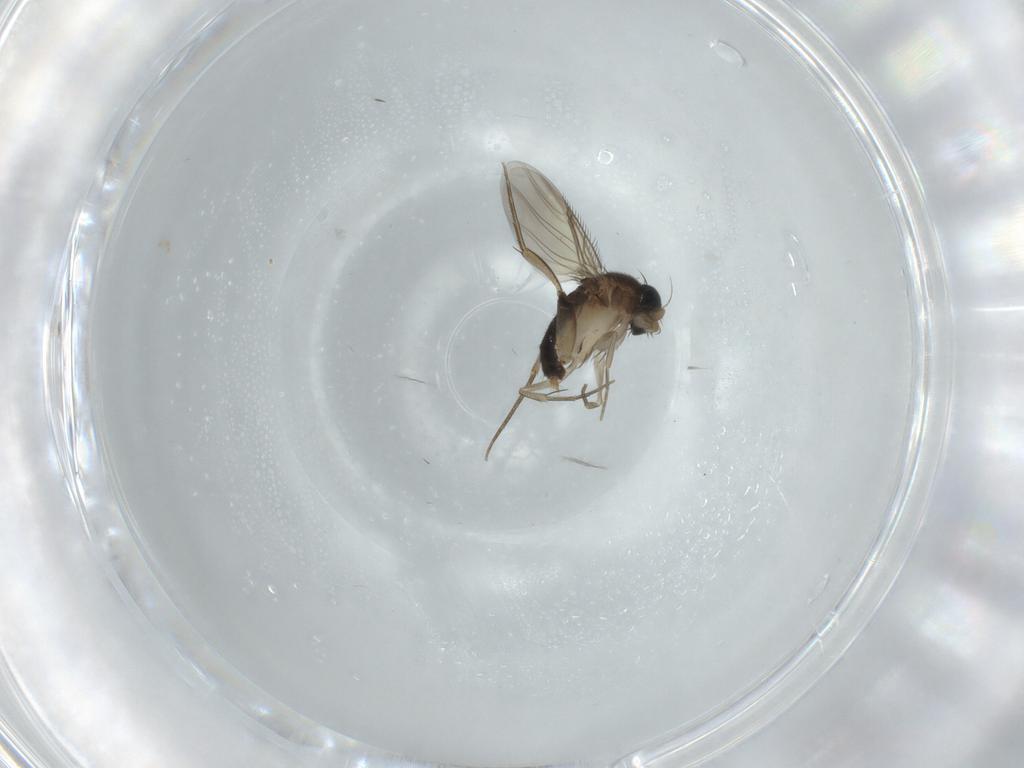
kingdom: Animalia
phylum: Arthropoda
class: Insecta
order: Diptera
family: Phoridae
